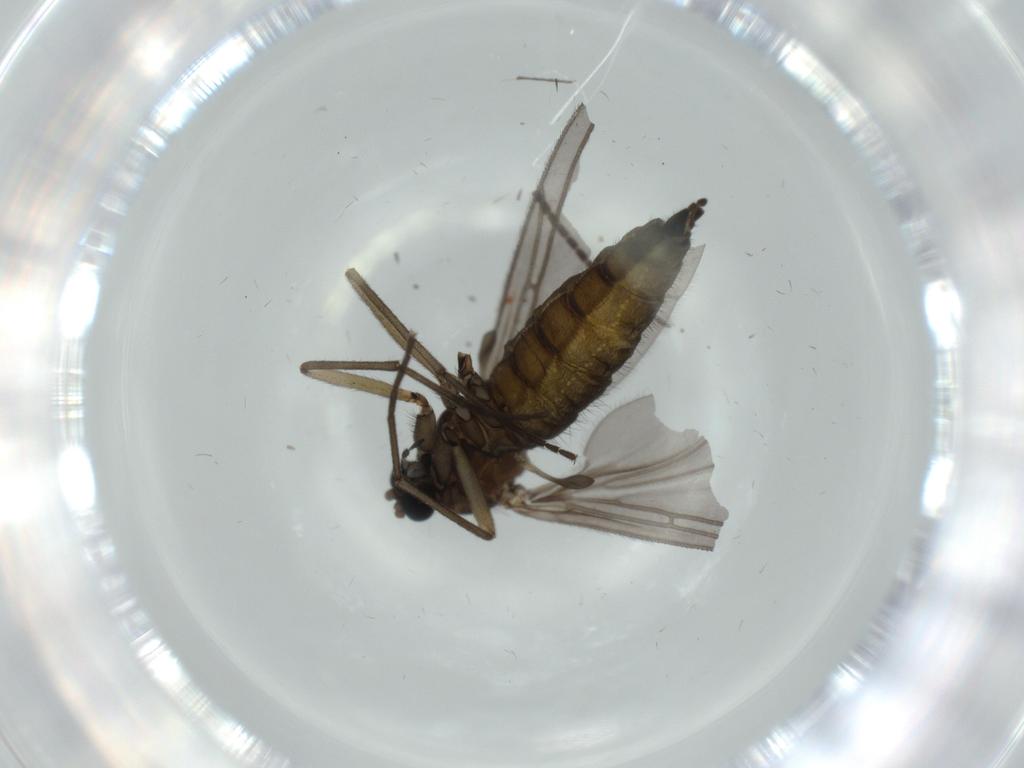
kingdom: Animalia
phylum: Arthropoda
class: Insecta
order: Diptera
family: Sciaridae
